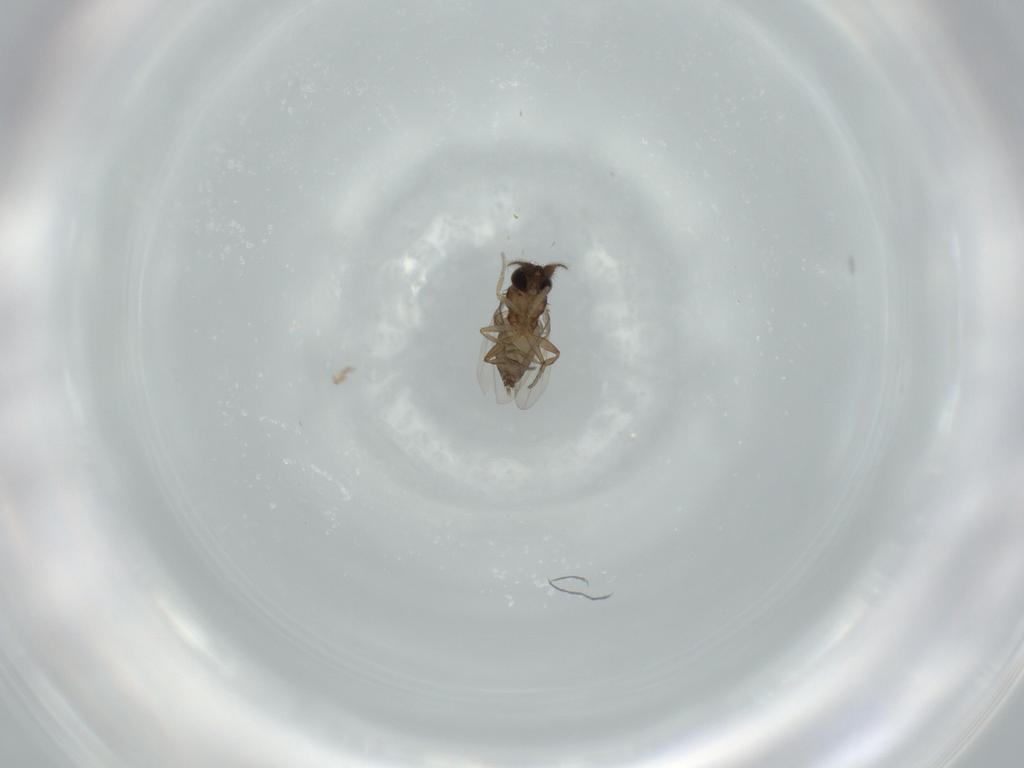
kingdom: Animalia
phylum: Arthropoda
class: Insecta
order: Diptera
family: Phoridae
